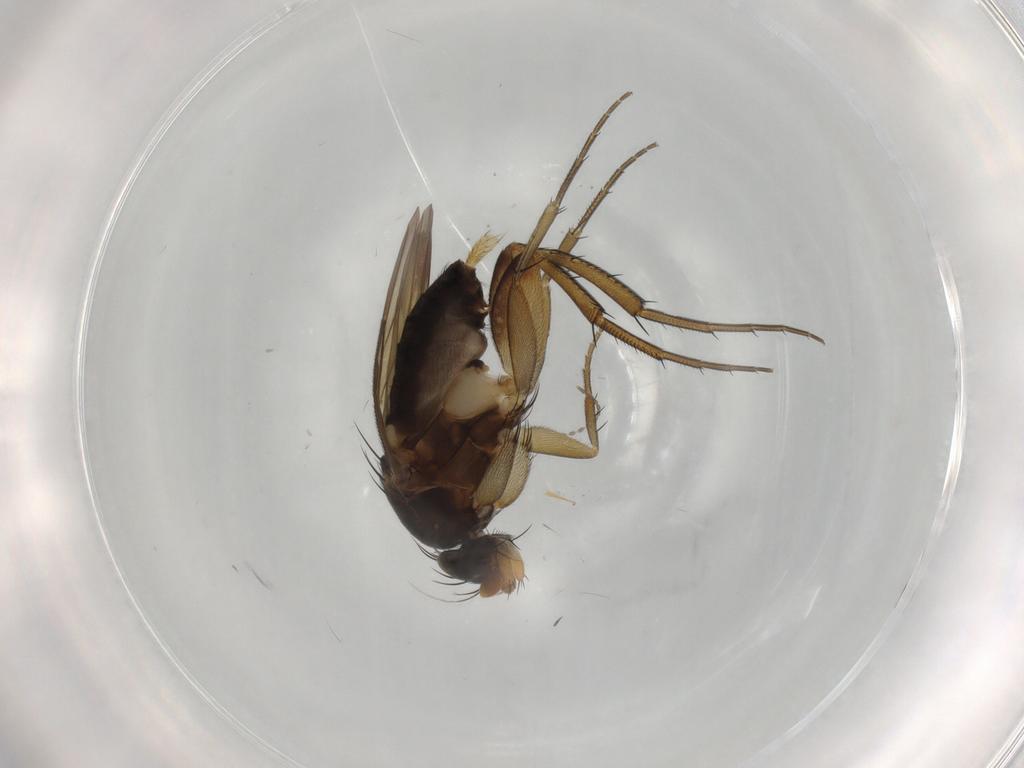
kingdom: Animalia
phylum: Arthropoda
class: Insecta
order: Diptera
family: Phoridae
